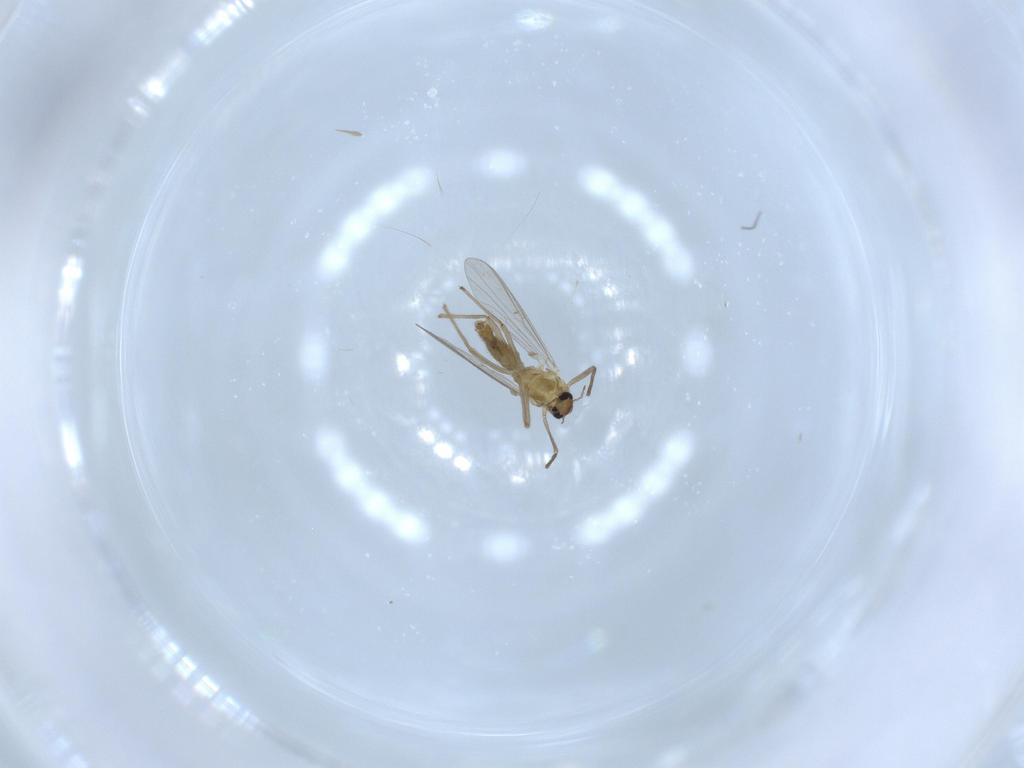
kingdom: Animalia
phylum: Arthropoda
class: Insecta
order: Diptera
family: Chironomidae
